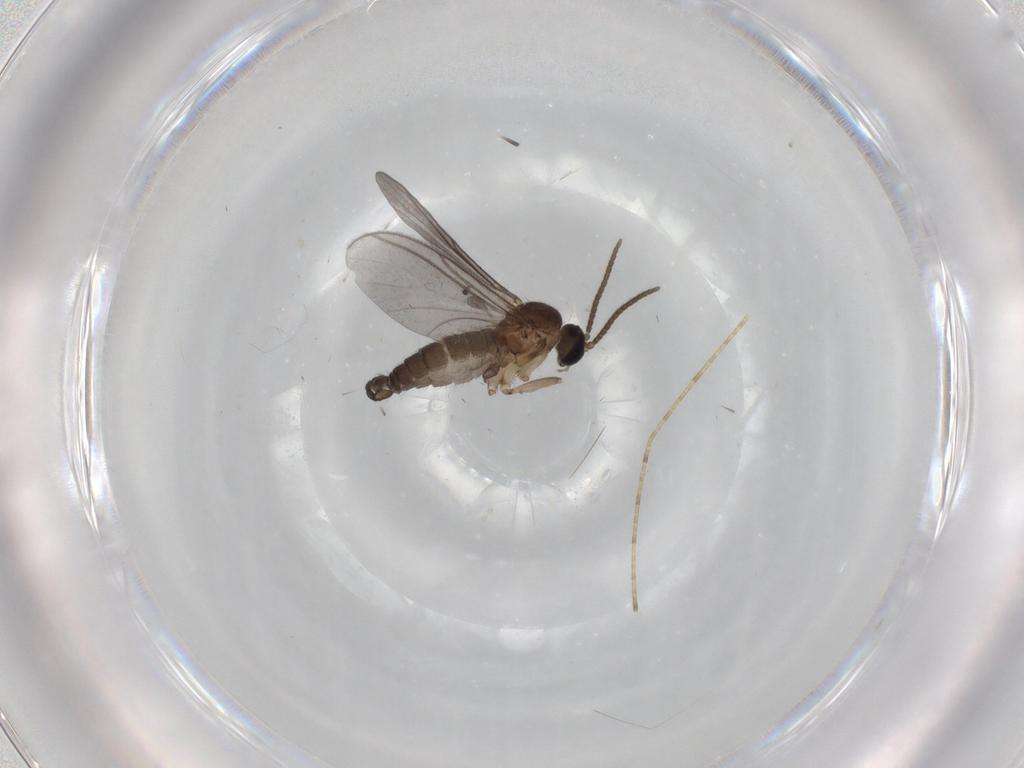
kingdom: Animalia
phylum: Arthropoda
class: Insecta
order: Diptera
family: Sciaridae
